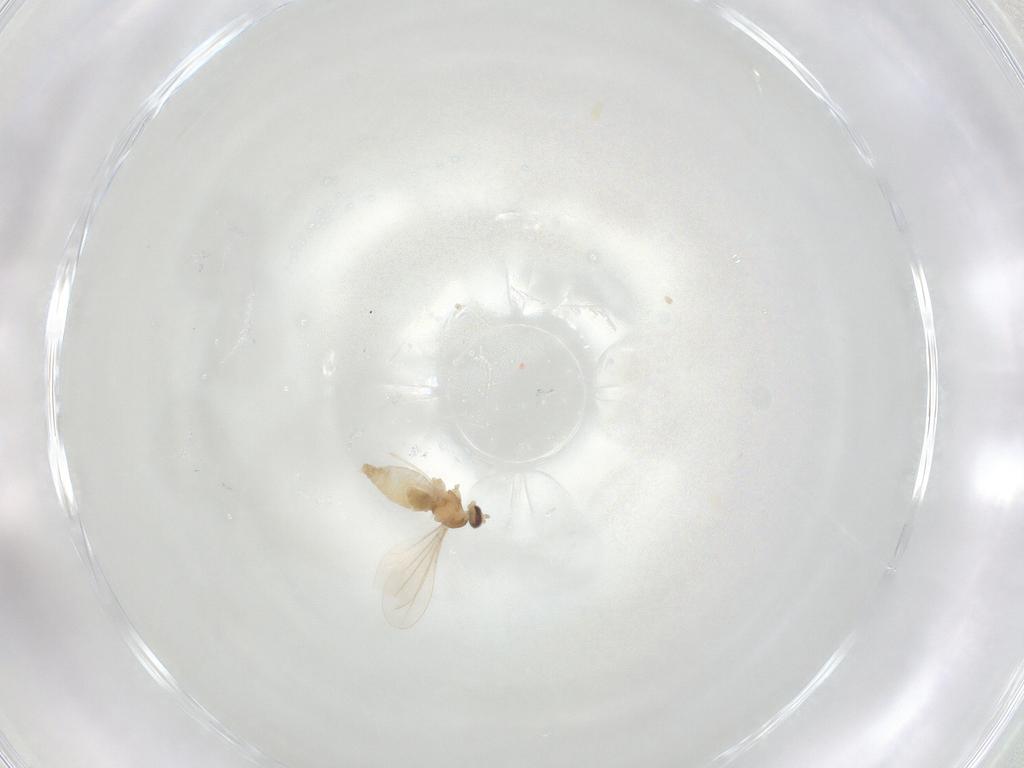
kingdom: Animalia
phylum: Arthropoda
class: Insecta
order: Diptera
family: Cecidomyiidae
